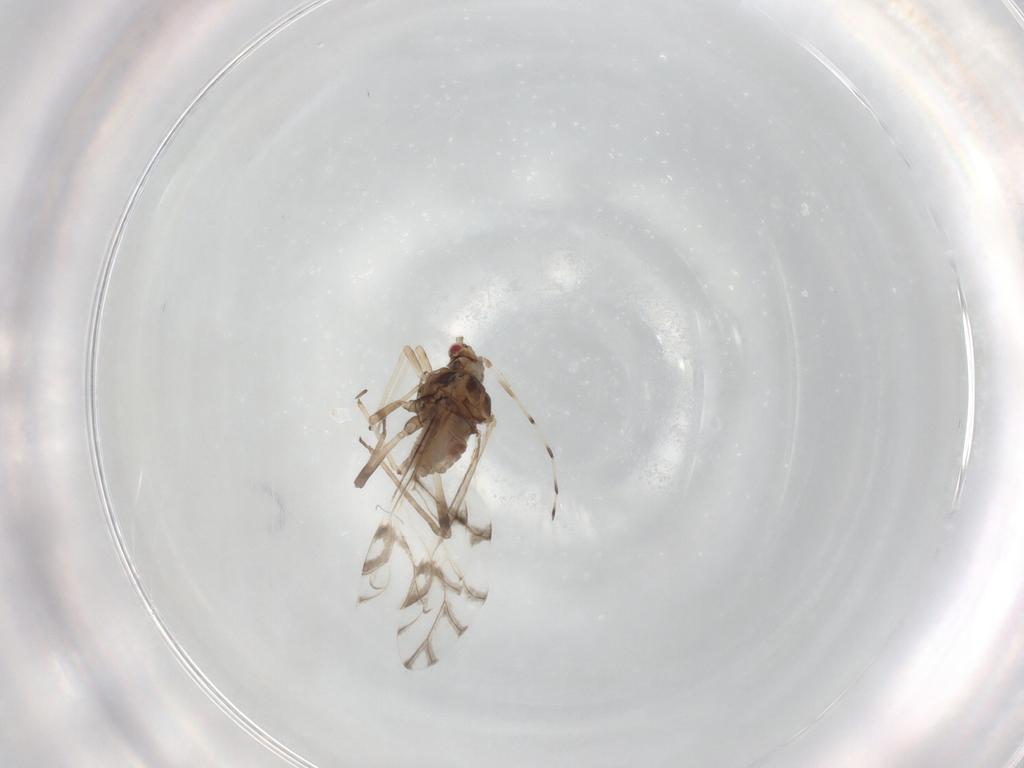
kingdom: Animalia
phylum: Arthropoda
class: Insecta
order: Hemiptera
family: Aphididae
